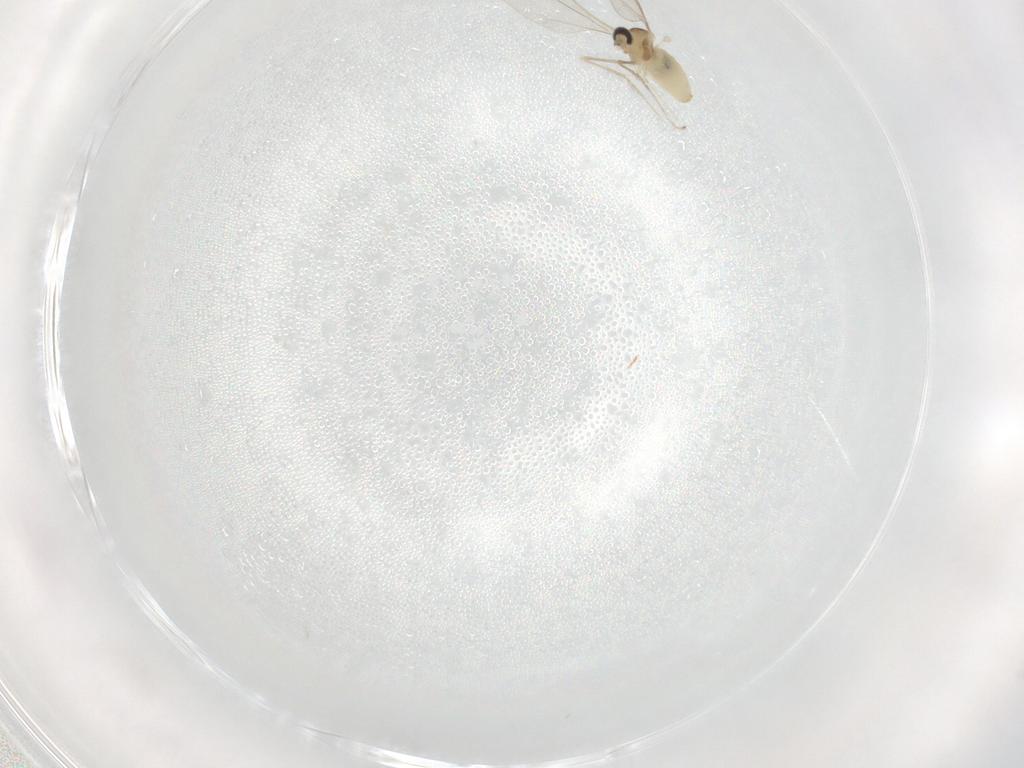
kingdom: Animalia
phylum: Arthropoda
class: Insecta
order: Diptera
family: Cecidomyiidae
